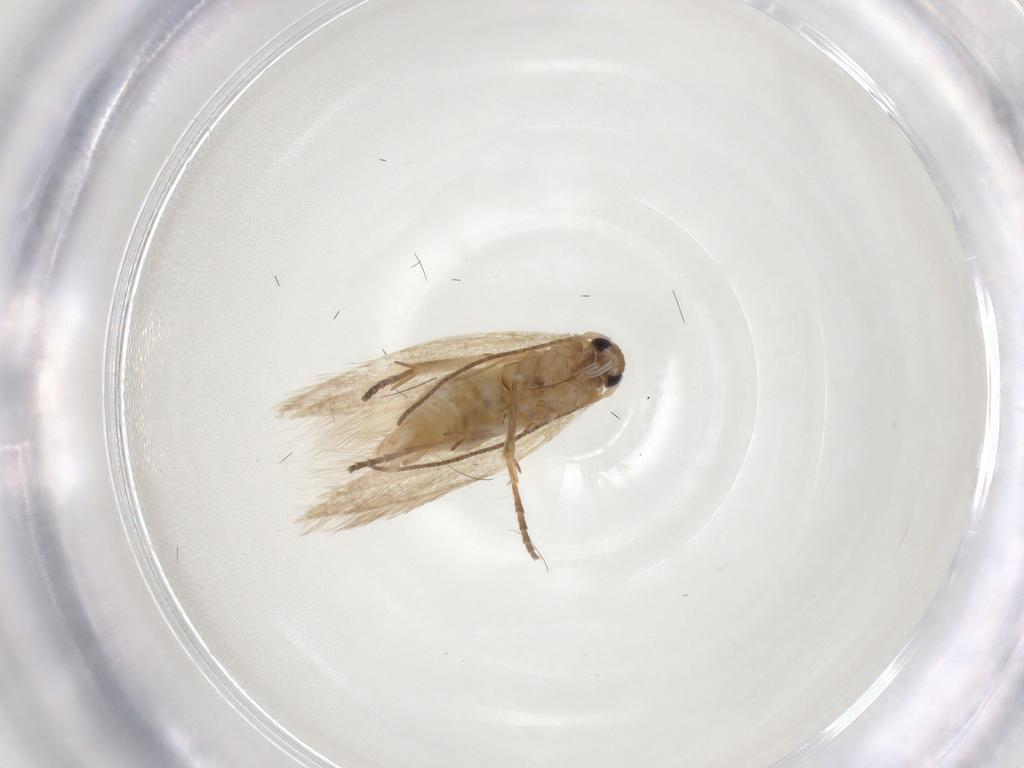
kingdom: Animalia
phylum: Arthropoda
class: Insecta
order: Lepidoptera
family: Bucculatricidae
